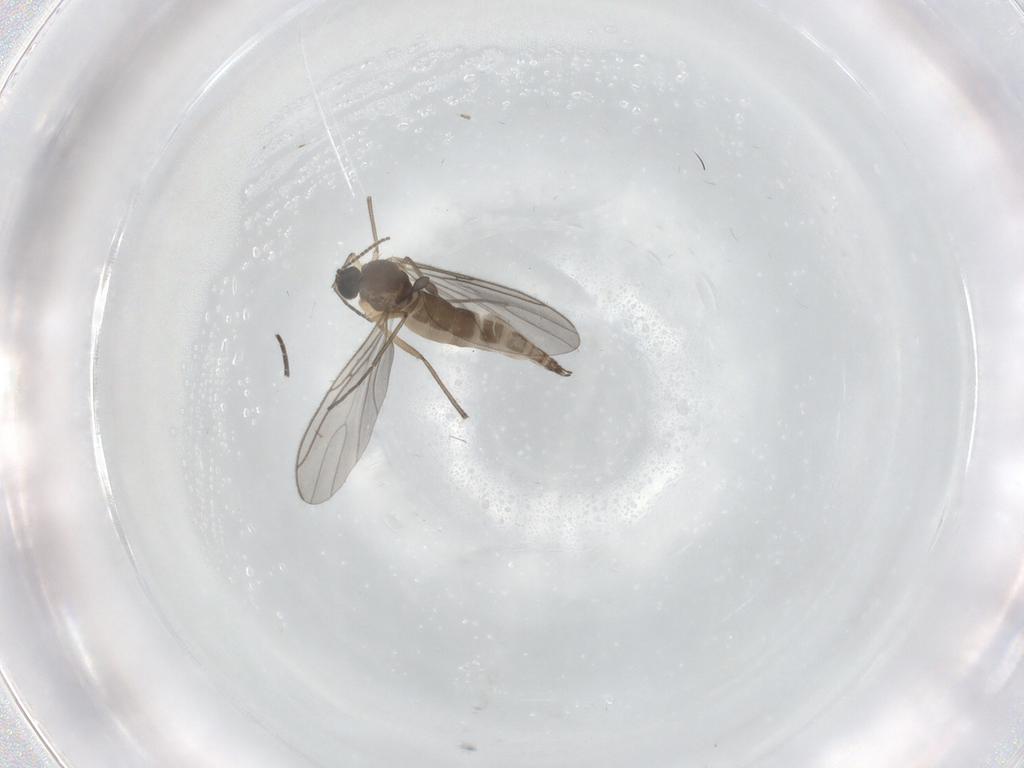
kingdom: Animalia
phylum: Arthropoda
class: Insecta
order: Diptera
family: Sciaridae
